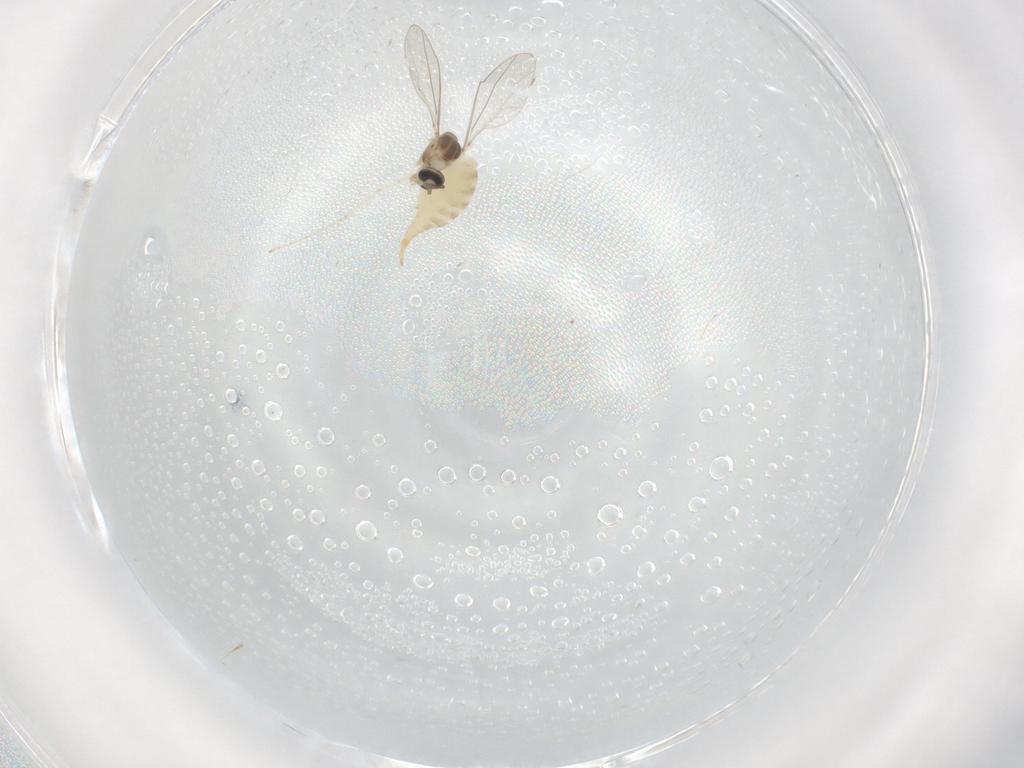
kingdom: Animalia
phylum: Arthropoda
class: Insecta
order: Diptera
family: Cecidomyiidae
